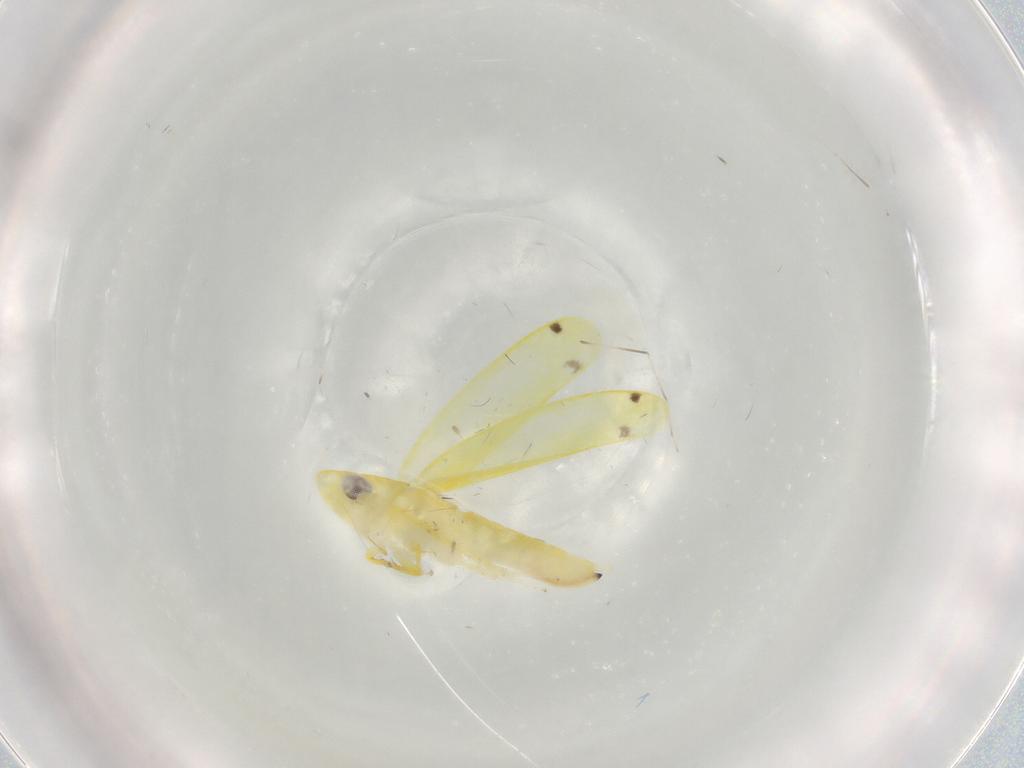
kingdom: Animalia
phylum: Arthropoda
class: Insecta
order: Hemiptera
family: Cicadellidae
